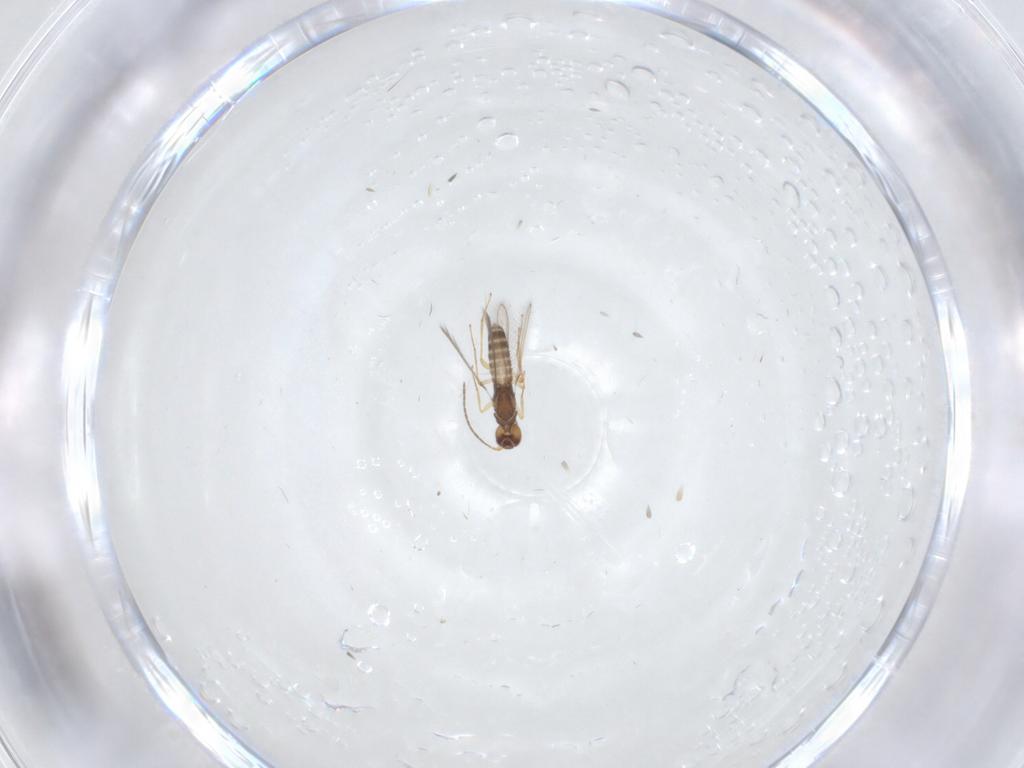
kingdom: Animalia
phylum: Arthropoda
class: Insecta
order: Hymenoptera
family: Mymaridae
